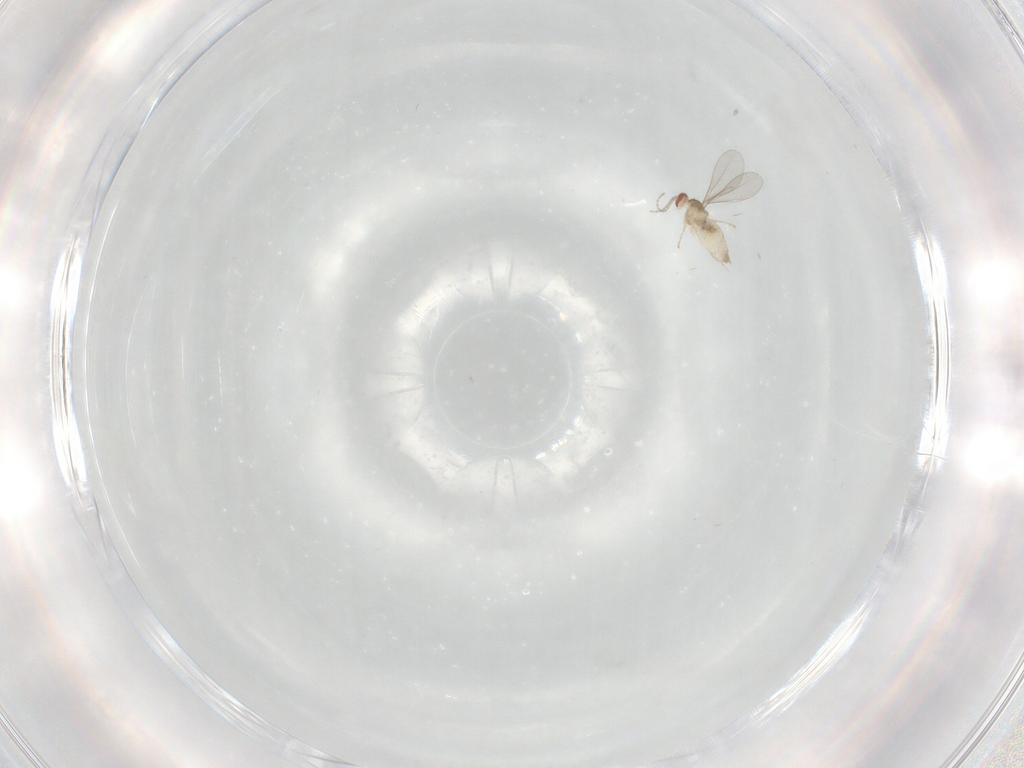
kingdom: Animalia
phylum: Arthropoda
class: Insecta
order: Diptera
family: Cecidomyiidae
